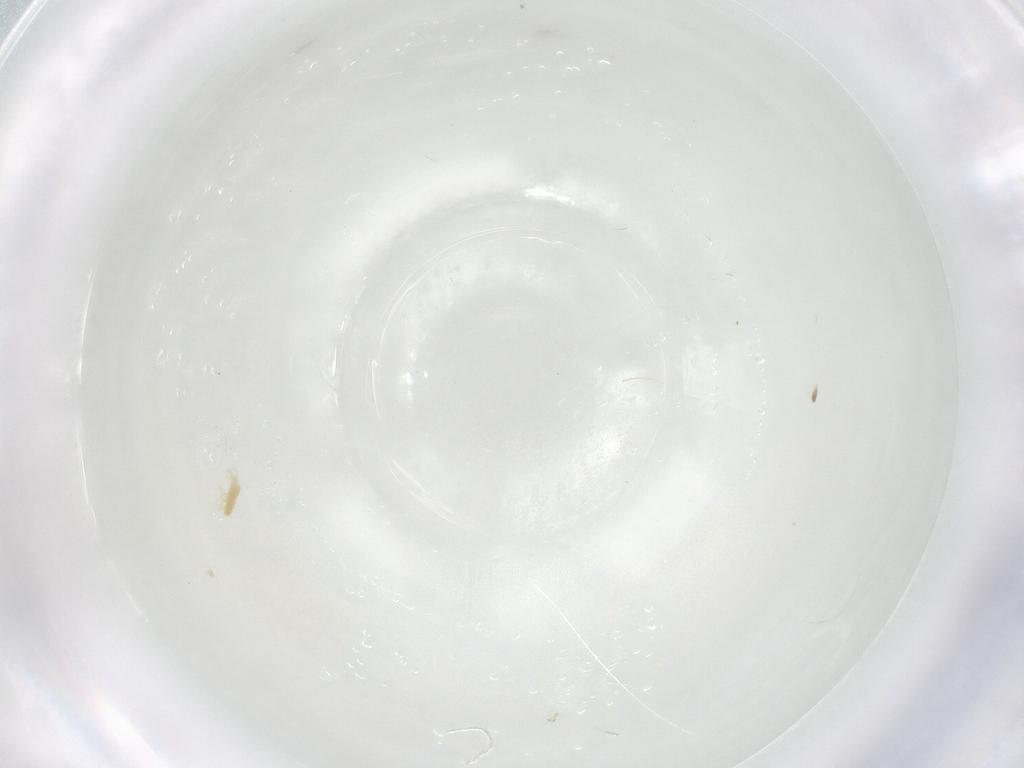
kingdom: Animalia
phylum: Arthropoda
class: Arachnida
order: Trombidiformes
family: Tetranychidae
